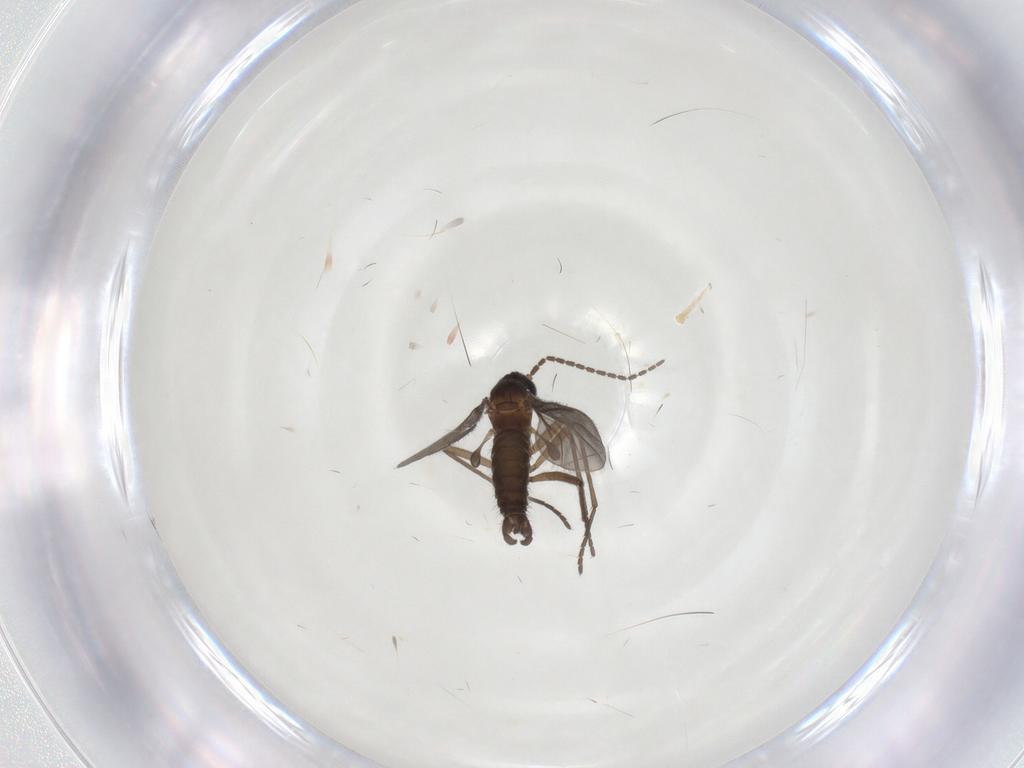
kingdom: Animalia
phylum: Arthropoda
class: Insecta
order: Diptera
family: Sciaridae
